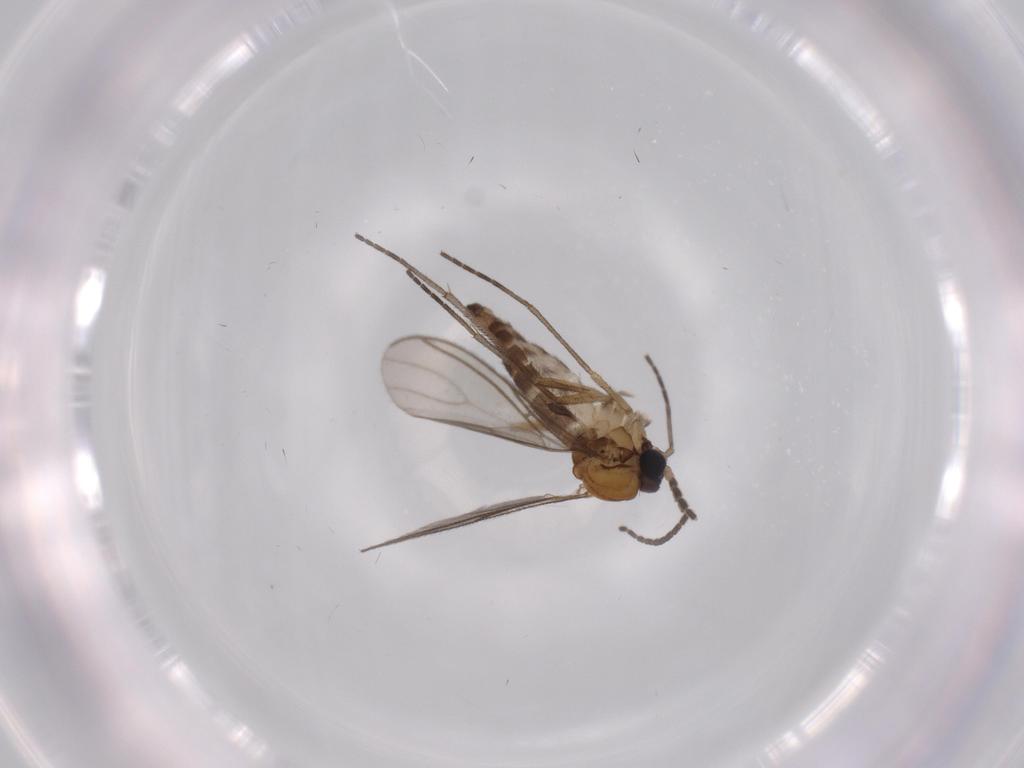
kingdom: Animalia
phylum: Arthropoda
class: Insecta
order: Diptera
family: Sciaridae
